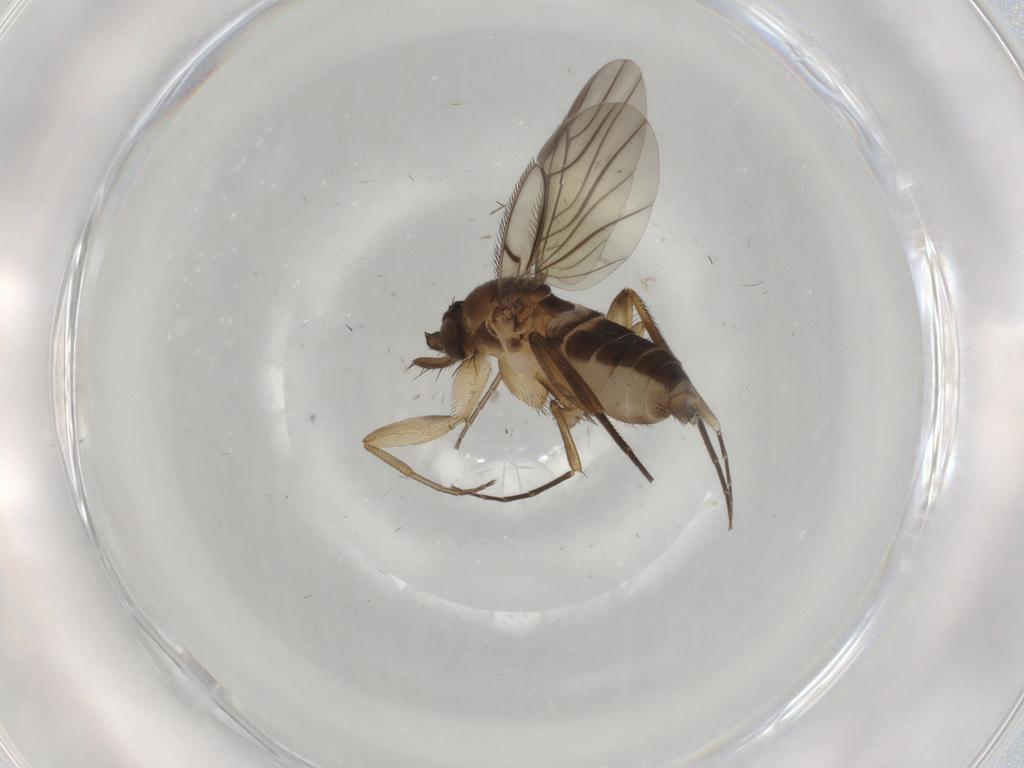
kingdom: Animalia
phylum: Arthropoda
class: Insecta
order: Diptera
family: Phoridae
